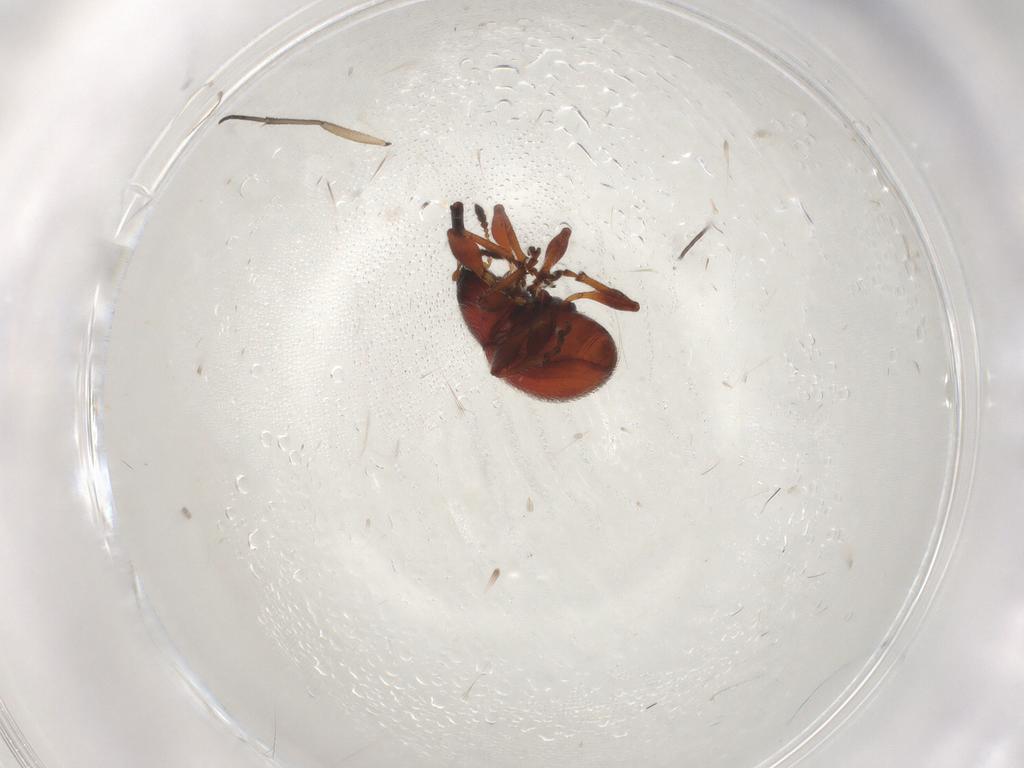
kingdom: Animalia
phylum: Arthropoda
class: Insecta
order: Coleoptera
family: Brentidae
